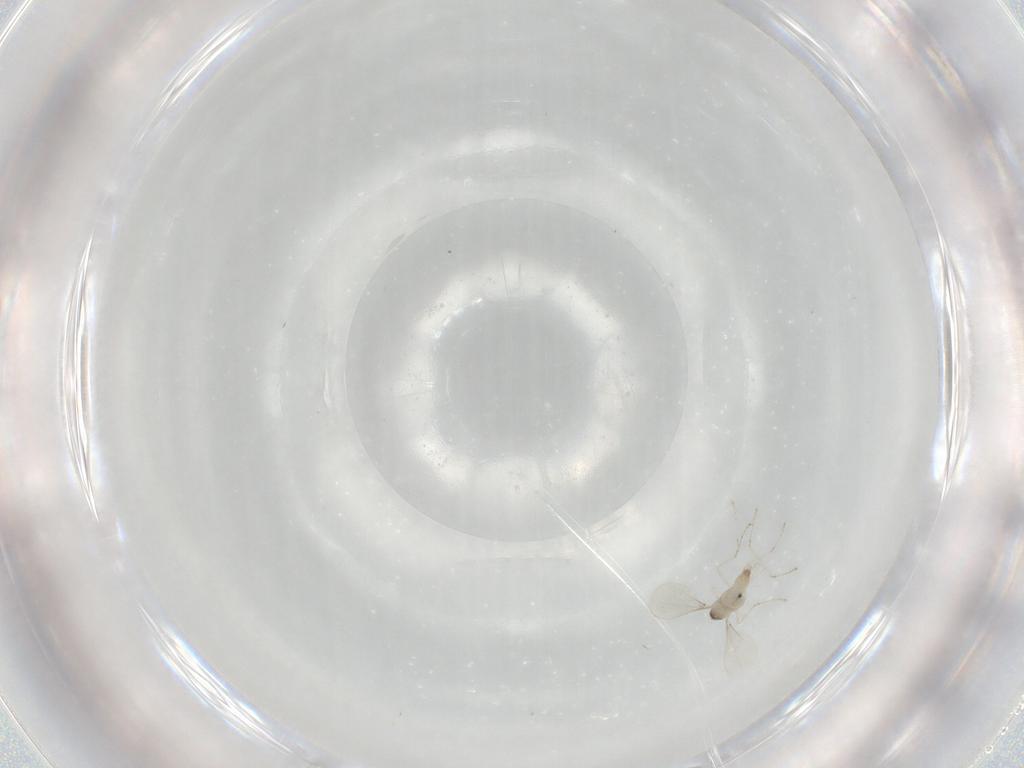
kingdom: Animalia
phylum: Arthropoda
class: Insecta
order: Diptera
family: Cecidomyiidae
